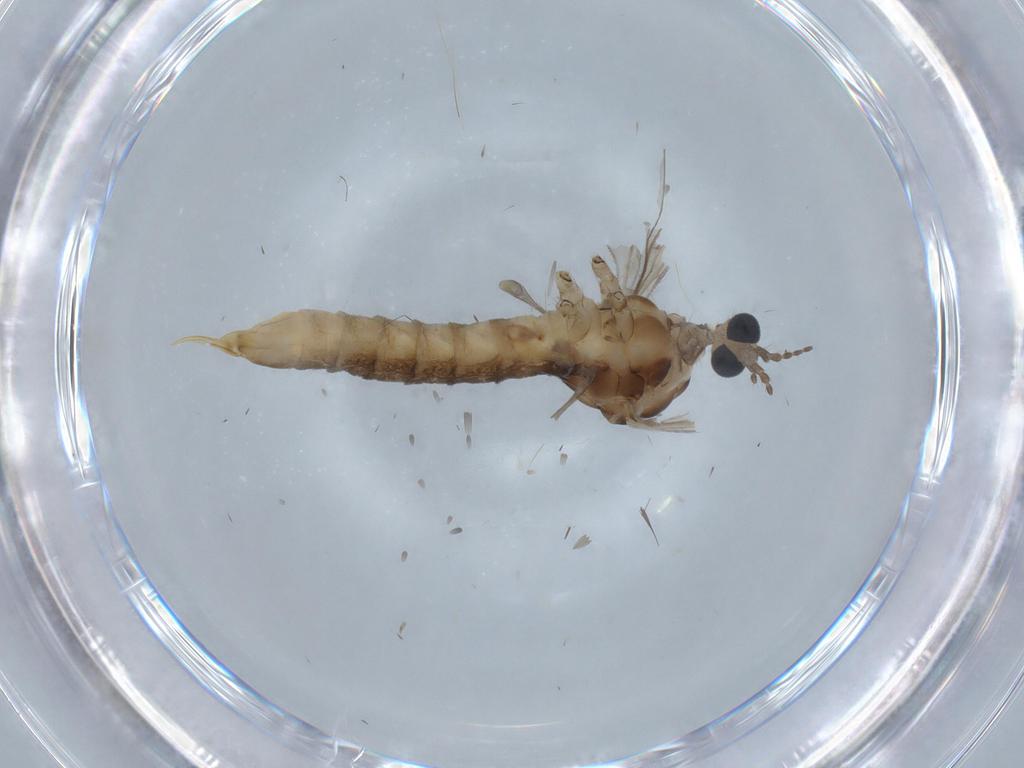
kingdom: Animalia
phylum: Arthropoda
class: Insecta
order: Diptera
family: Cecidomyiidae
